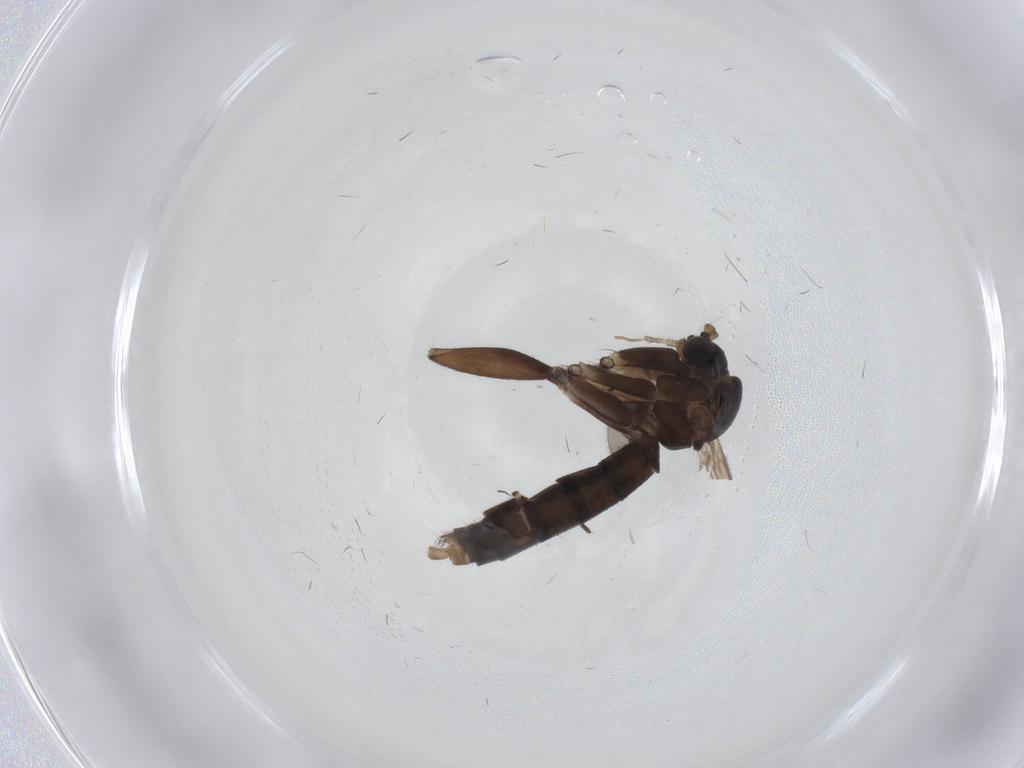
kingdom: Animalia
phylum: Arthropoda
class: Insecta
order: Diptera
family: Mycetophilidae
